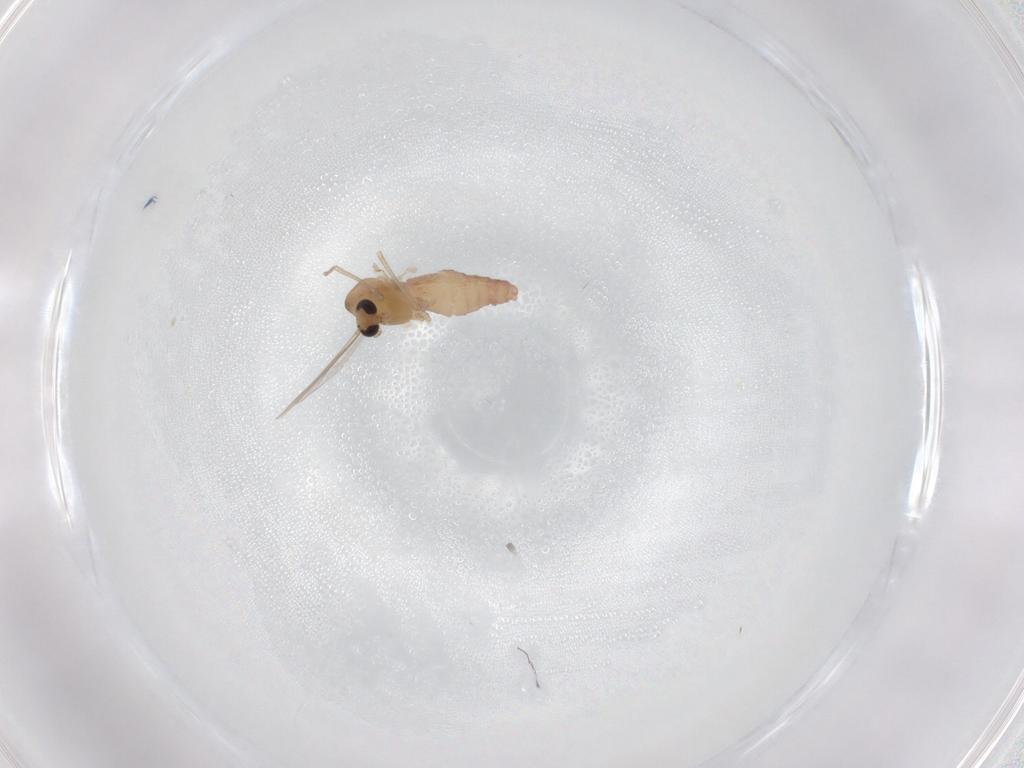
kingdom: Animalia
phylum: Arthropoda
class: Insecta
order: Diptera
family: Chironomidae
